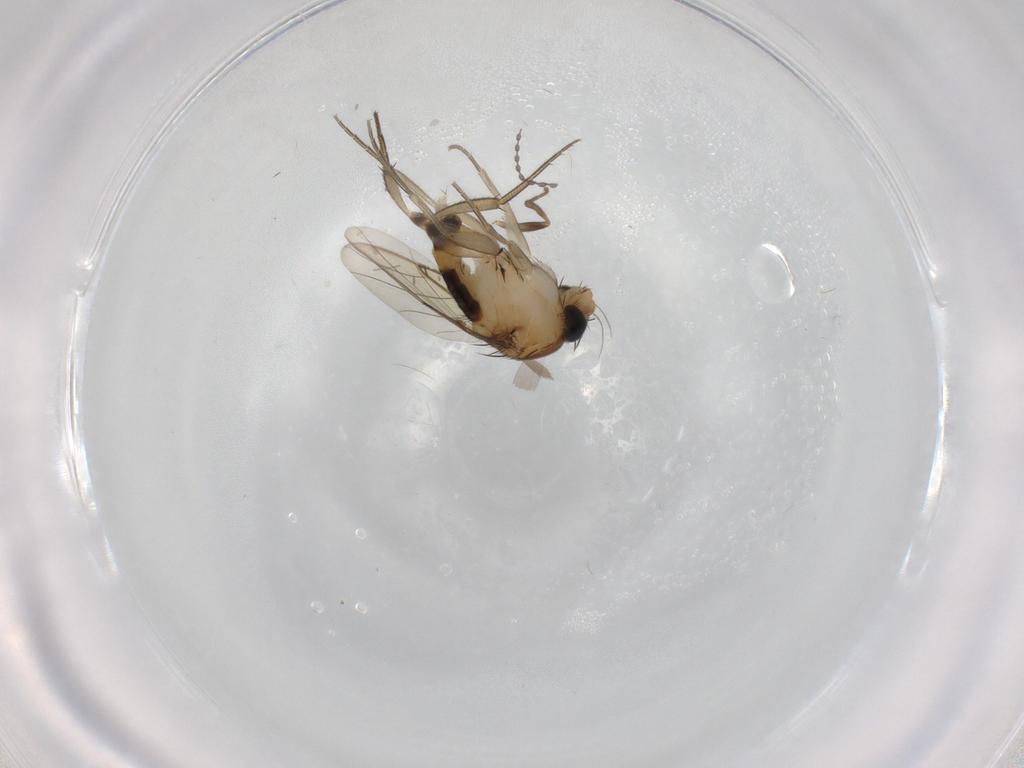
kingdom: Animalia
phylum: Arthropoda
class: Insecta
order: Diptera
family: Phoridae
